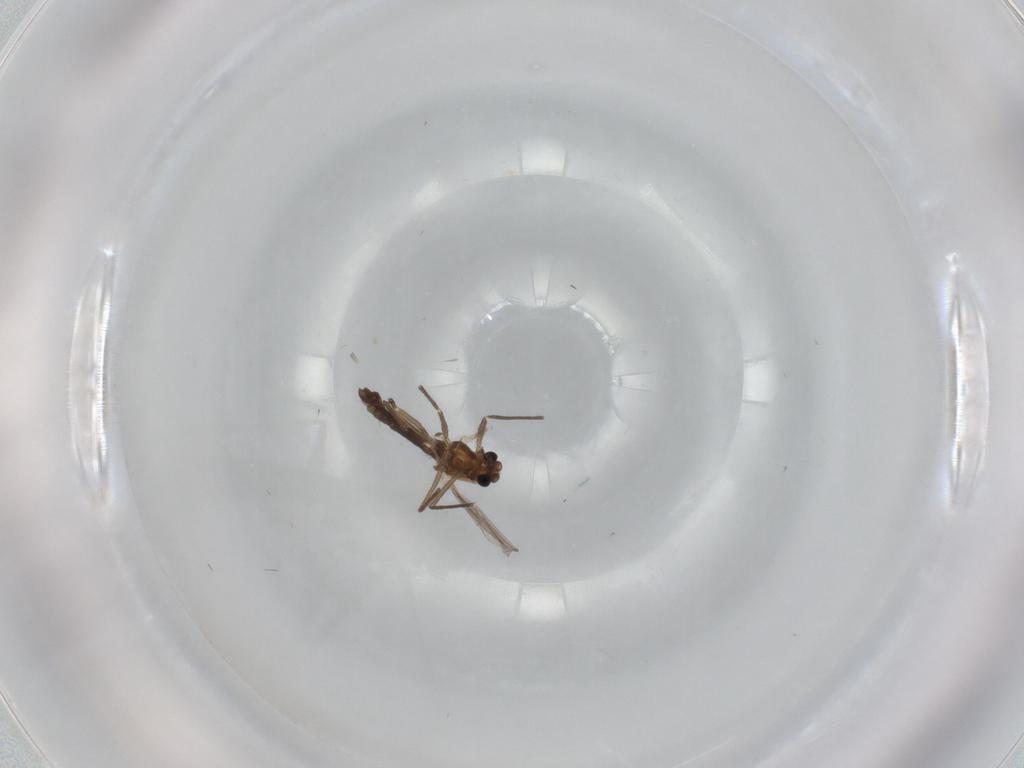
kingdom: Animalia
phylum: Arthropoda
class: Insecta
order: Diptera
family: Chironomidae
